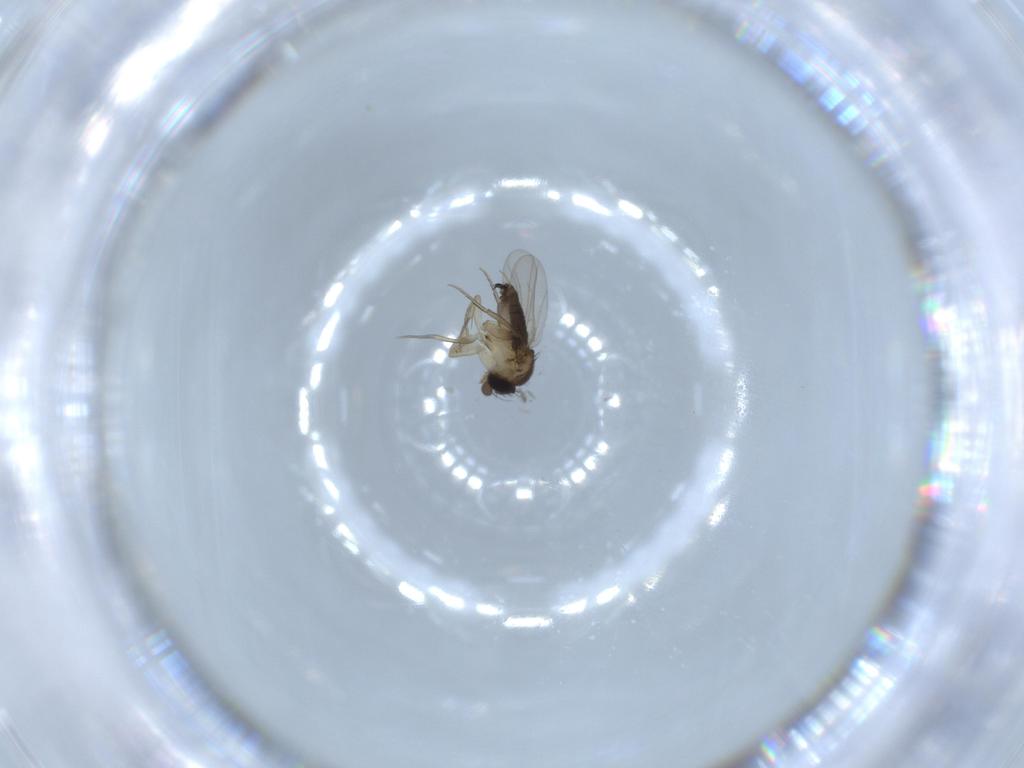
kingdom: Animalia
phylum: Arthropoda
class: Insecta
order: Diptera
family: Phoridae
